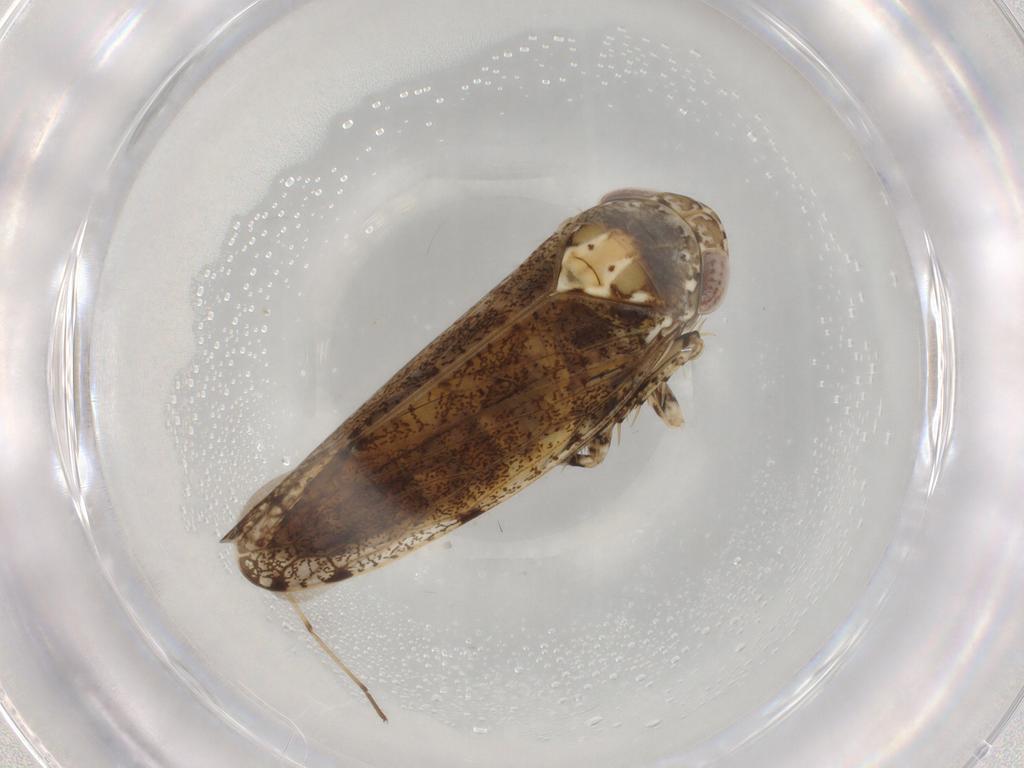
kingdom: Animalia
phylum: Arthropoda
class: Insecta
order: Hemiptera
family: Cicadellidae
